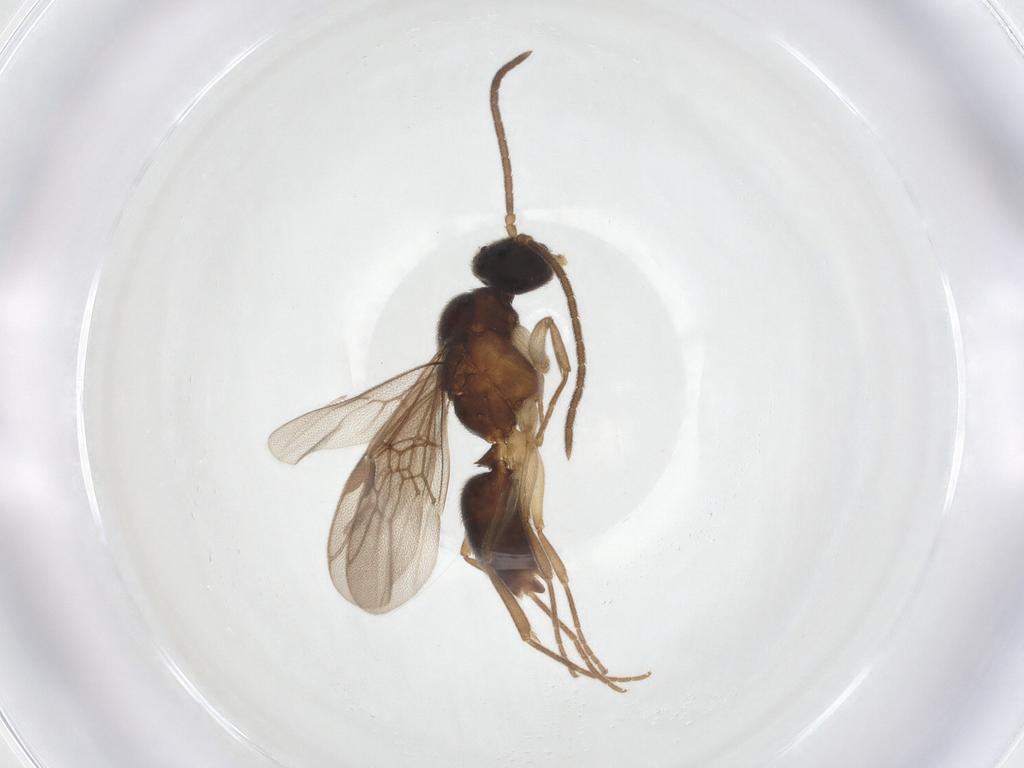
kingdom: Animalia
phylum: Arthropoda
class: Insecta
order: Hymenoptera
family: Formicidae
